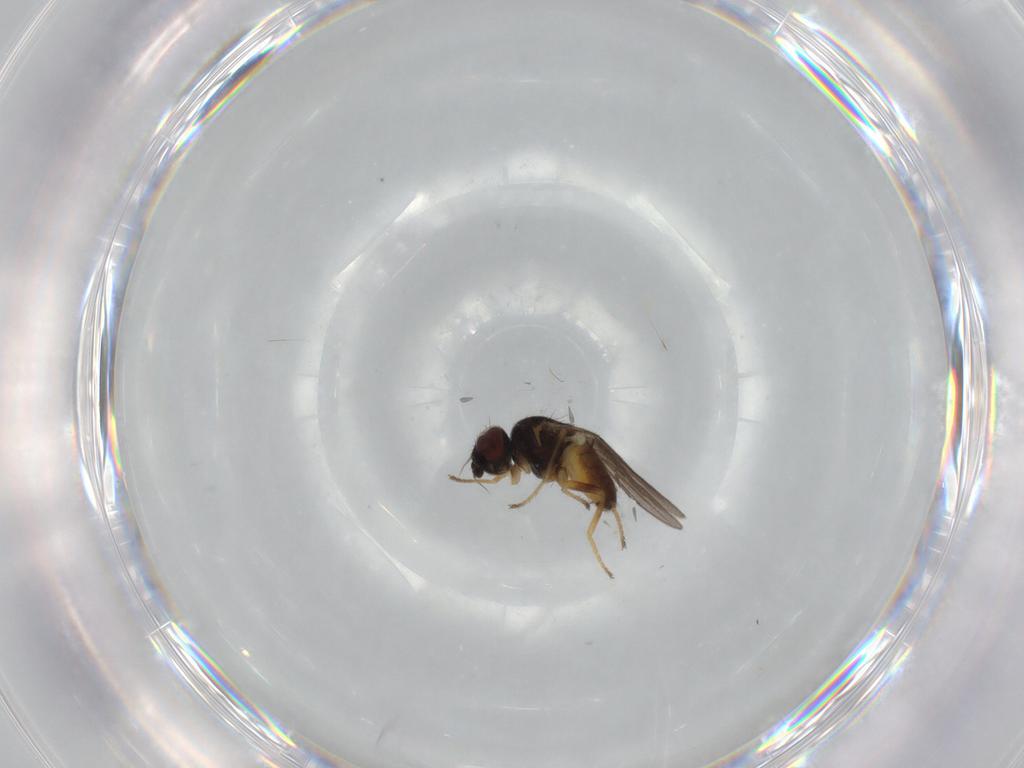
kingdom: Animalia
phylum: Arthropoda
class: Insecta
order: Diptera
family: Chloropidae
